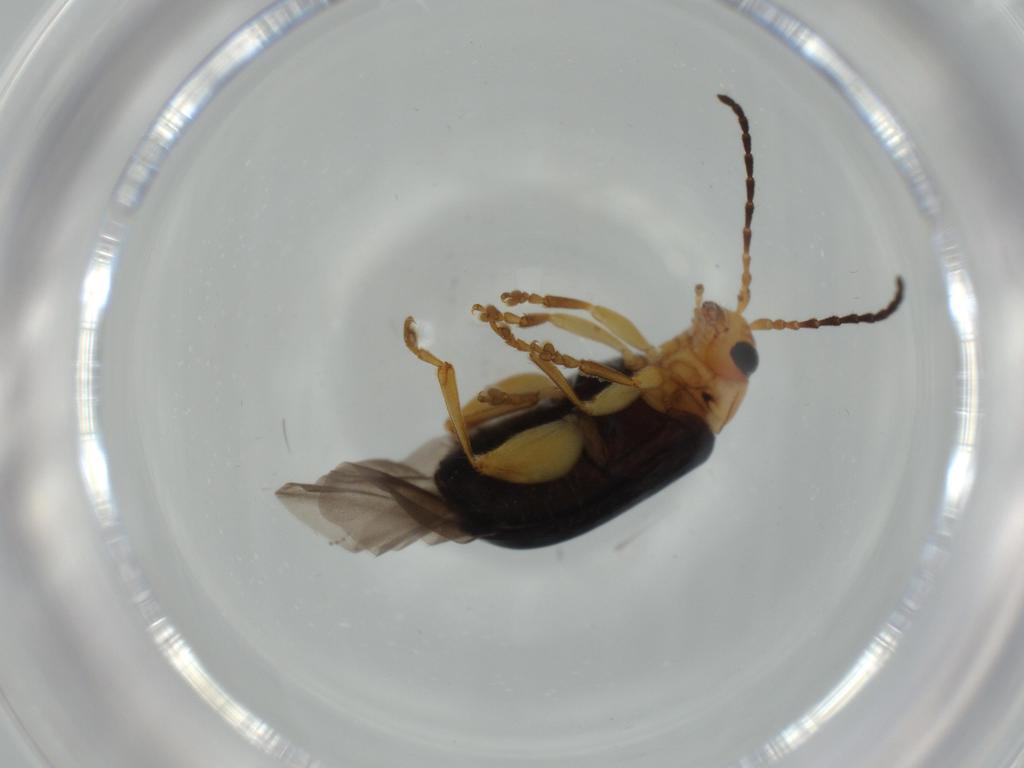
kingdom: Animalia
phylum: Arthropoda
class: Insecta
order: Coleoptera
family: Chrysomelidae
